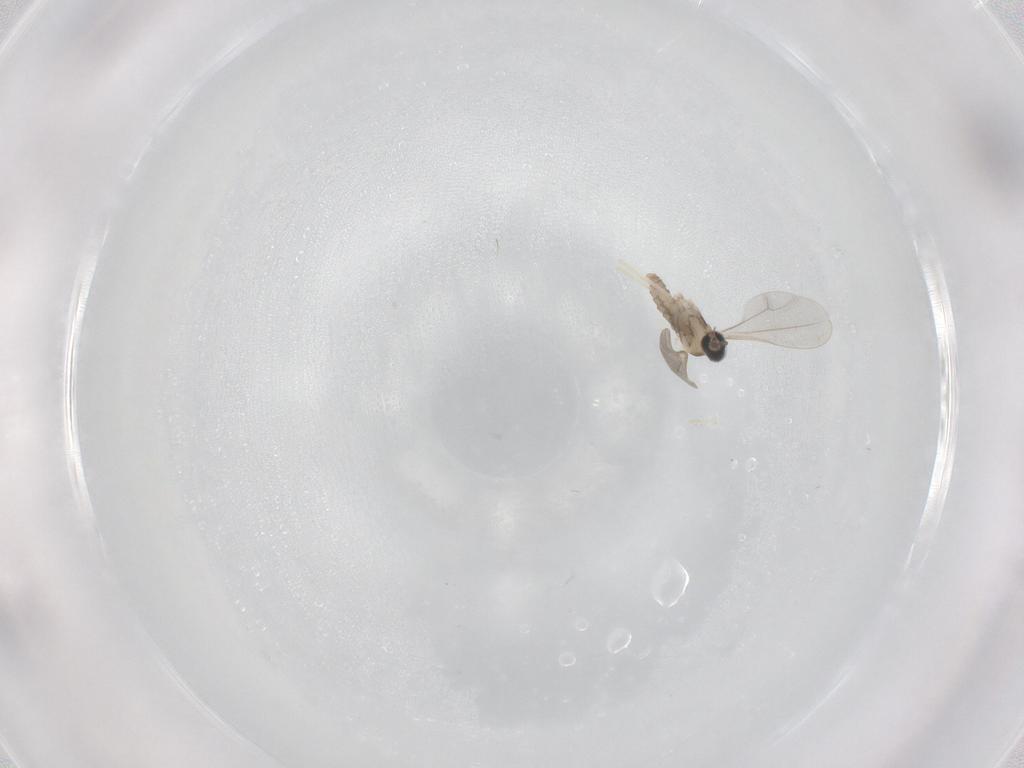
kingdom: Animalia
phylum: Arthropoda
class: Insecta
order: Diptera
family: Cecidomyiidae
